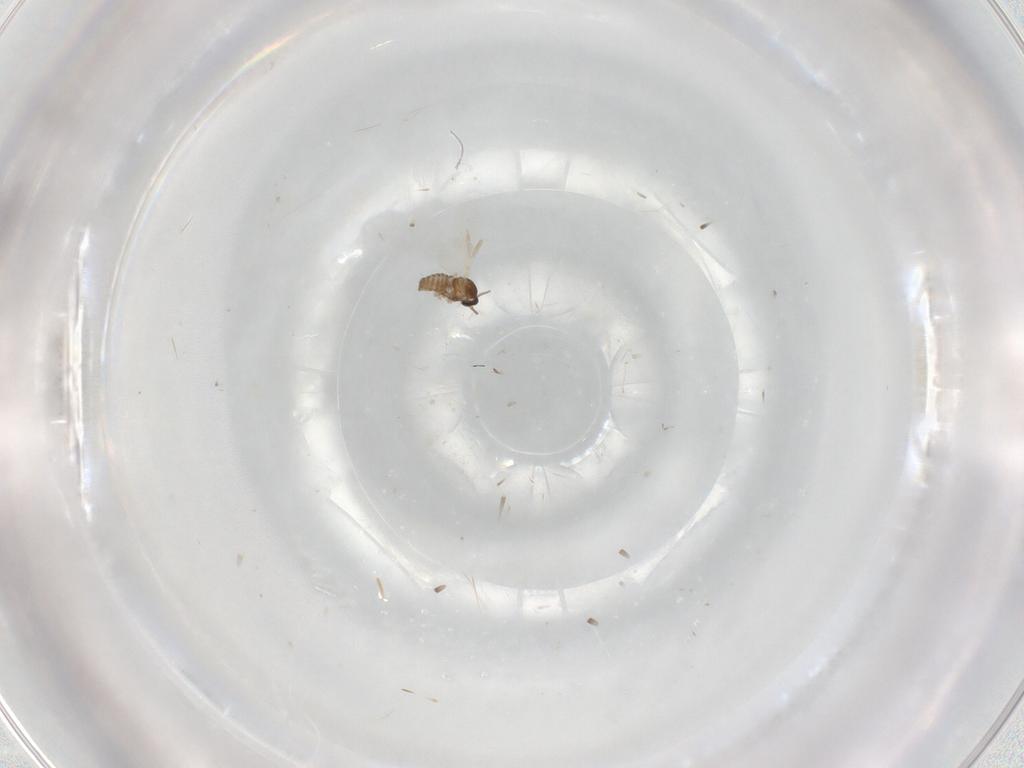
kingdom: Animalia
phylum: Arthropoda
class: Insecta
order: Diptera
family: Cecidomyiidae
